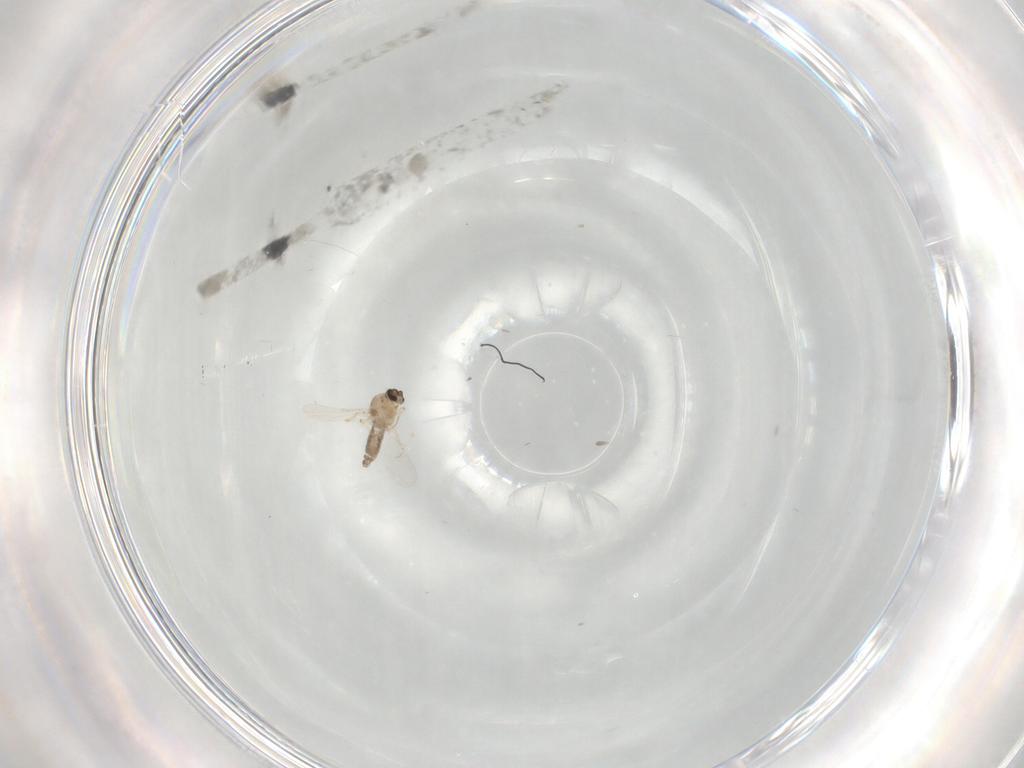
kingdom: Animalia
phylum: Arthropoda
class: Insecta
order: Diptera
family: Ceratopogonidae
